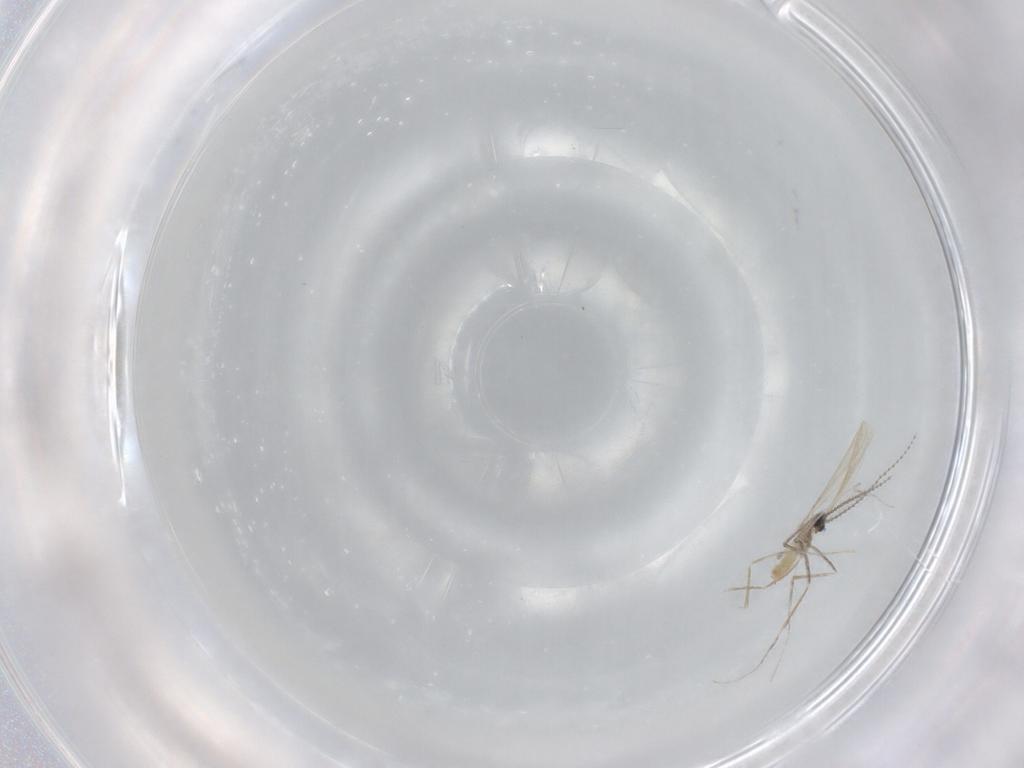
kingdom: Animalia
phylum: Arthropoda
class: Insecta
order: Diptera
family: Cecidomyiidae
